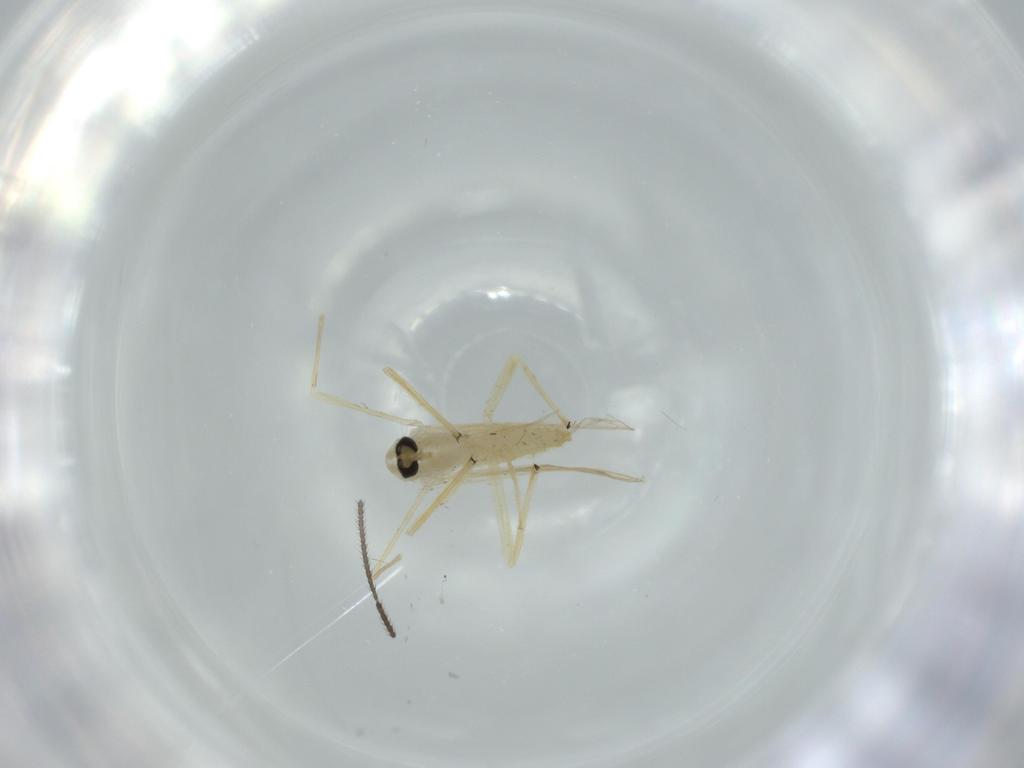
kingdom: Animalia
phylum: Arthropoda
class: Insecta
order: Diptera
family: Chironomidae
